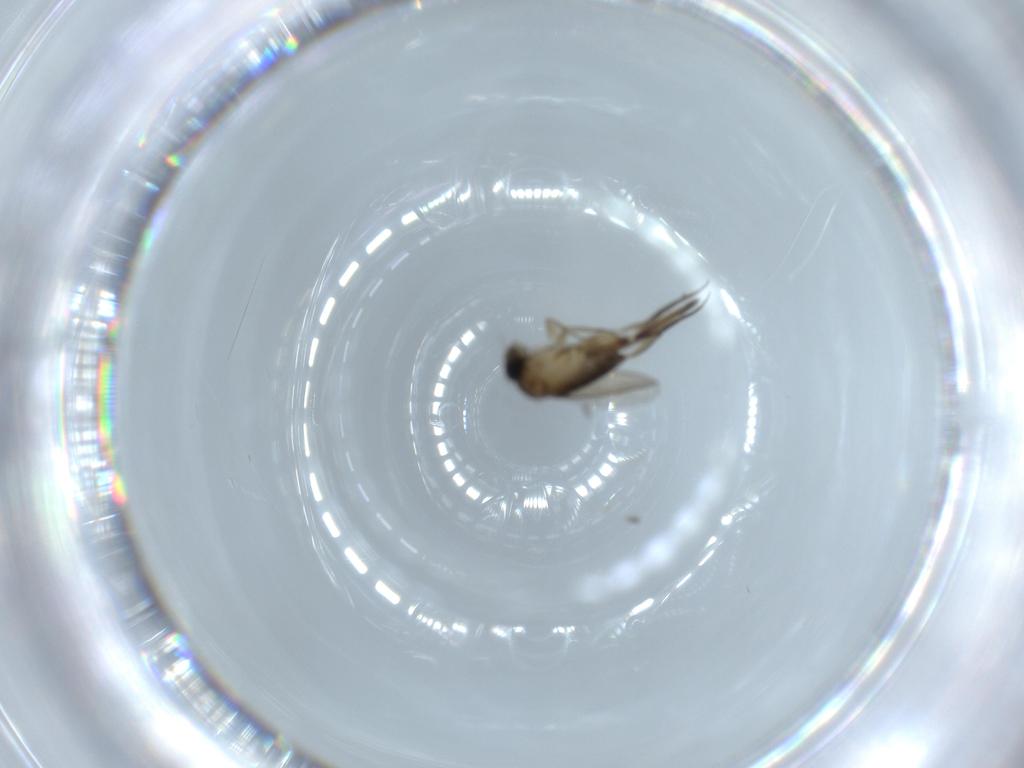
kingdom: Animalia
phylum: Arthropoda
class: Insecta
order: Diptera
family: Phoridae
